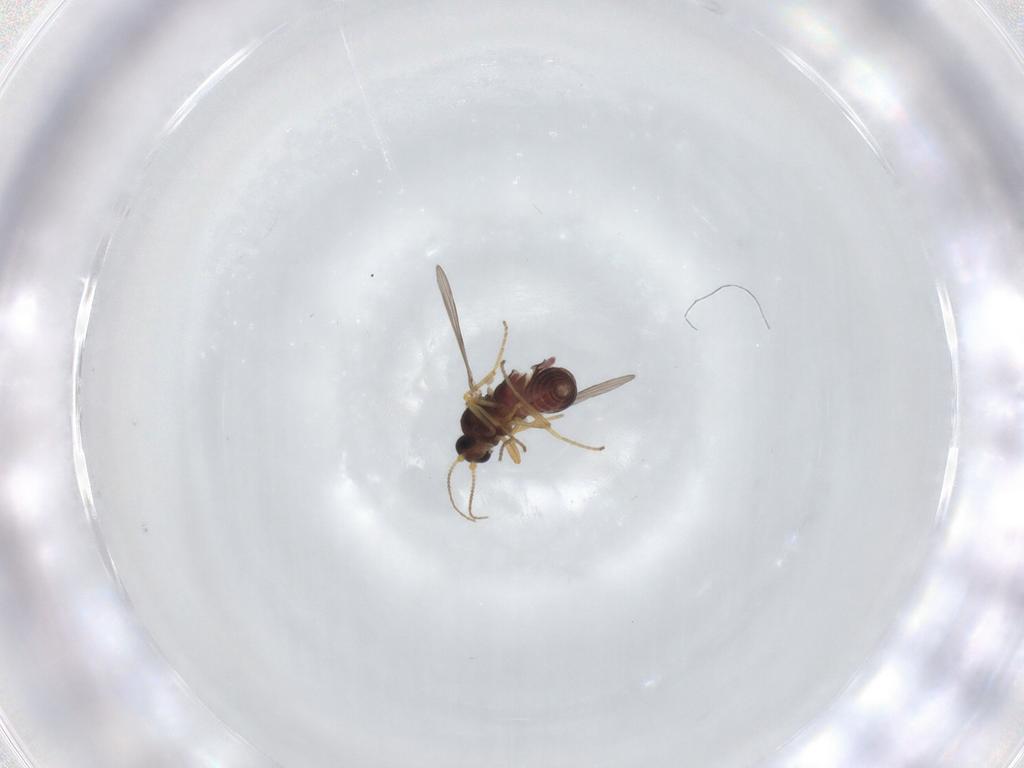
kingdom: Animalia
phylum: Arthropoda
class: Insecta
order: Diptera
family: Ceratopogonidae
